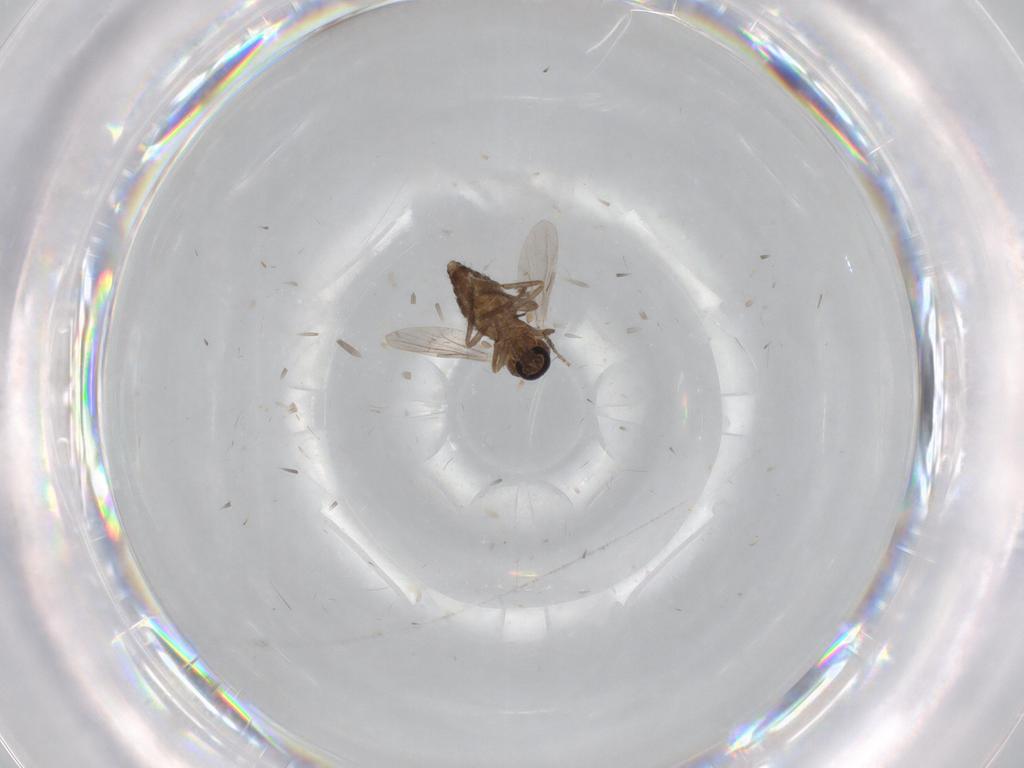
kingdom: Animalia
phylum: Arthropoda
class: Insecta
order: Diptera
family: Ceratopogonidae
